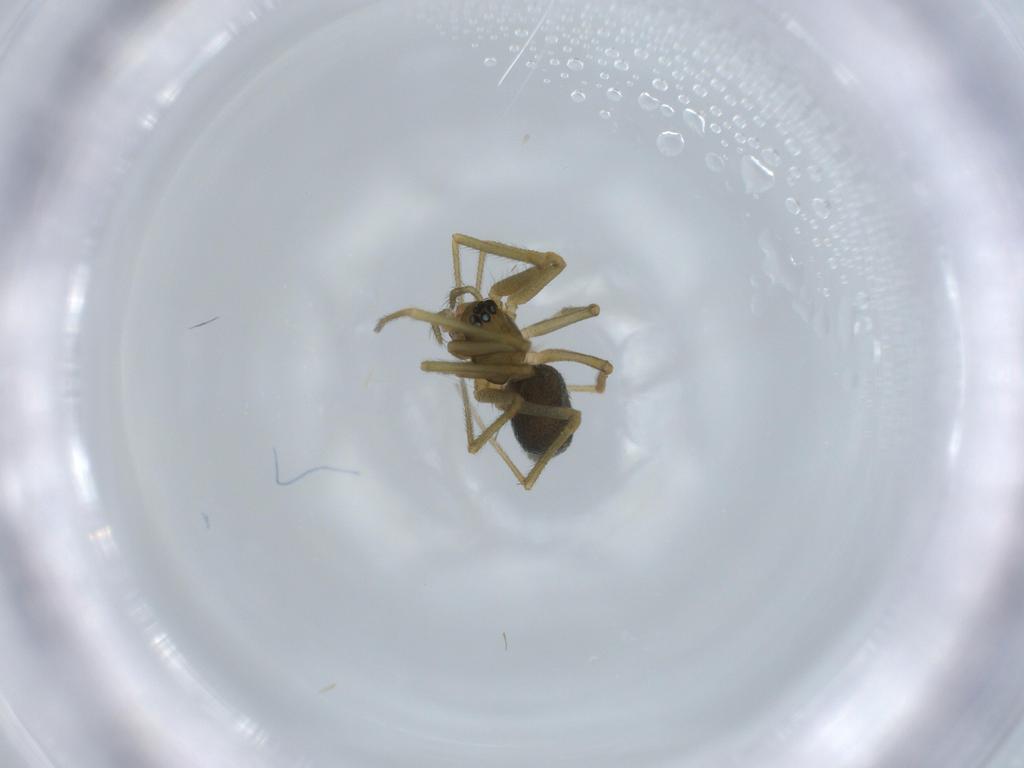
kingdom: Animalia
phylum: Arthropoda
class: Arachnida
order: Araneae
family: Linyphiidae
